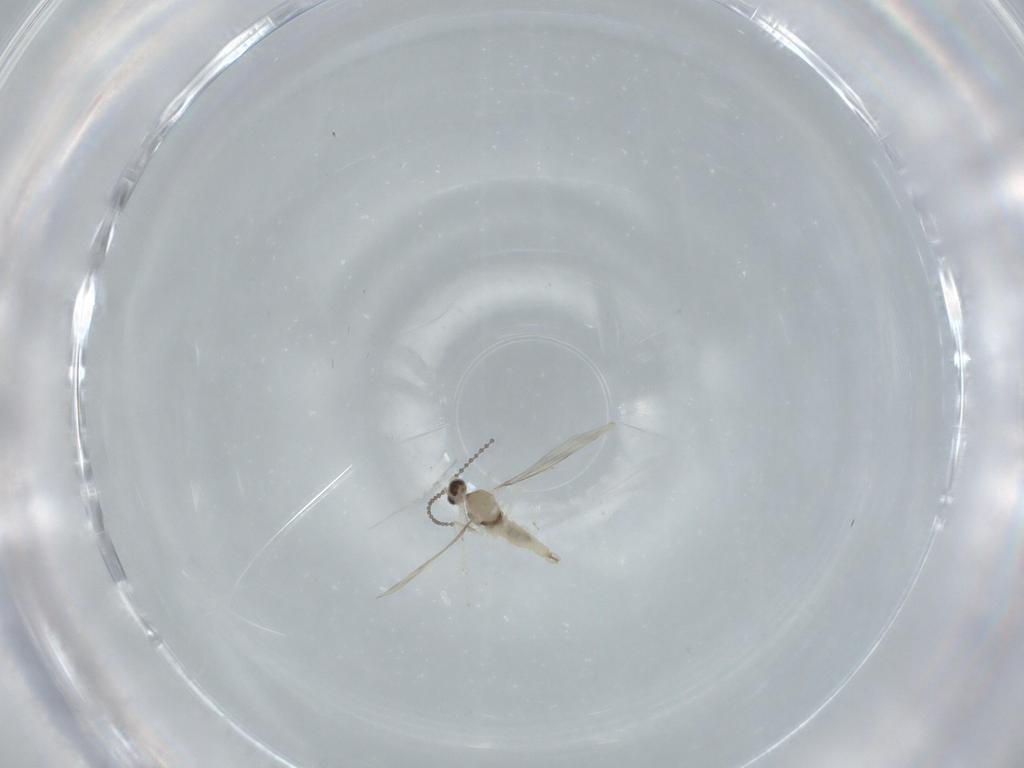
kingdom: Animalia
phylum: Arthropoda
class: Insecta
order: Diptera
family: Cecidomyiidae
